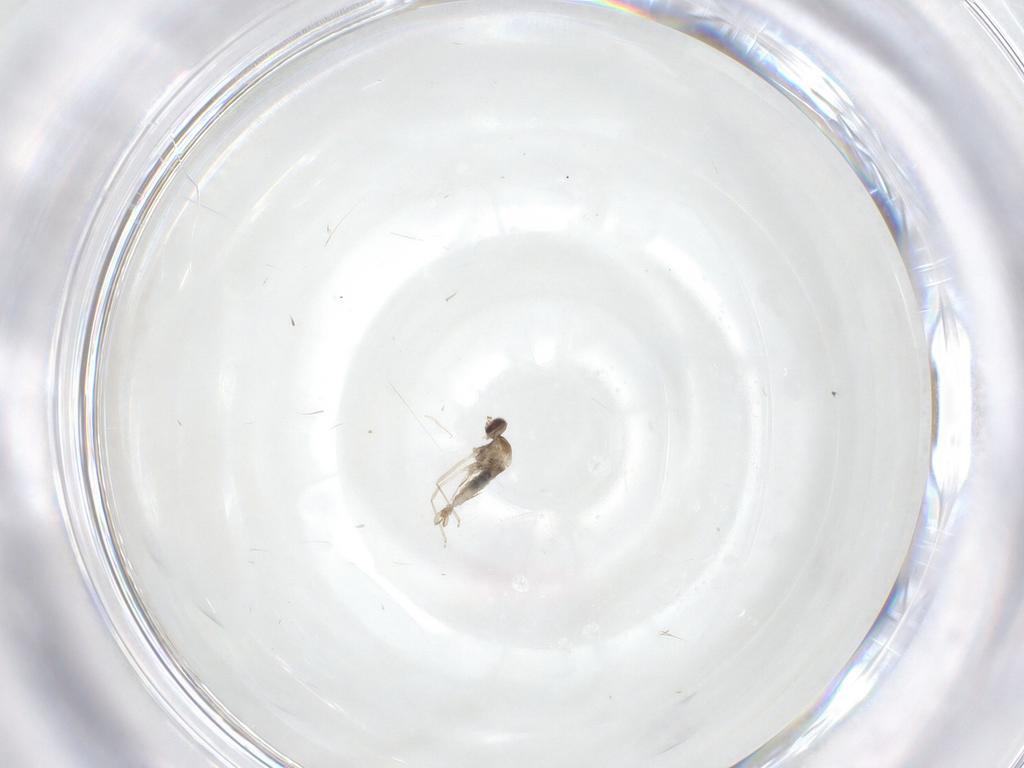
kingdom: Animalia
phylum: Arthropoda
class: Insecta
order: Diptera
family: Cecidomyiidae
